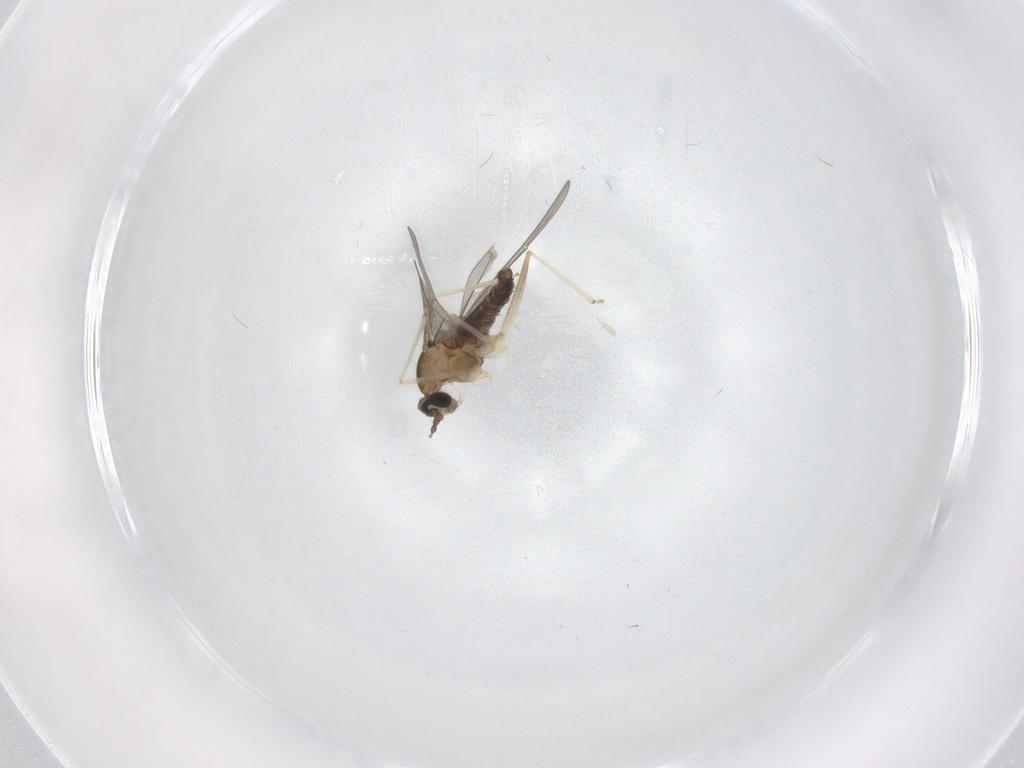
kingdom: Animalia
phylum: Arthropoda
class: Insecta
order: Diptera
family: Cecidomyiidae
